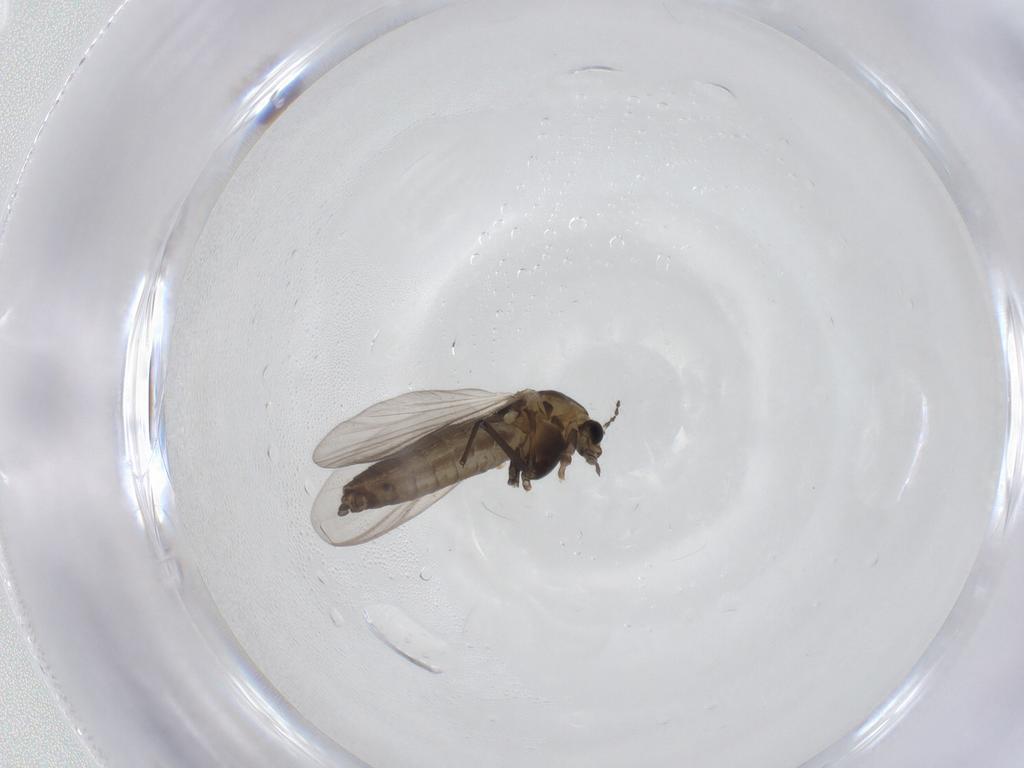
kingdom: Animalia
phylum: Arthropoda
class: Insecta
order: Diptera
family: Chironomidae
